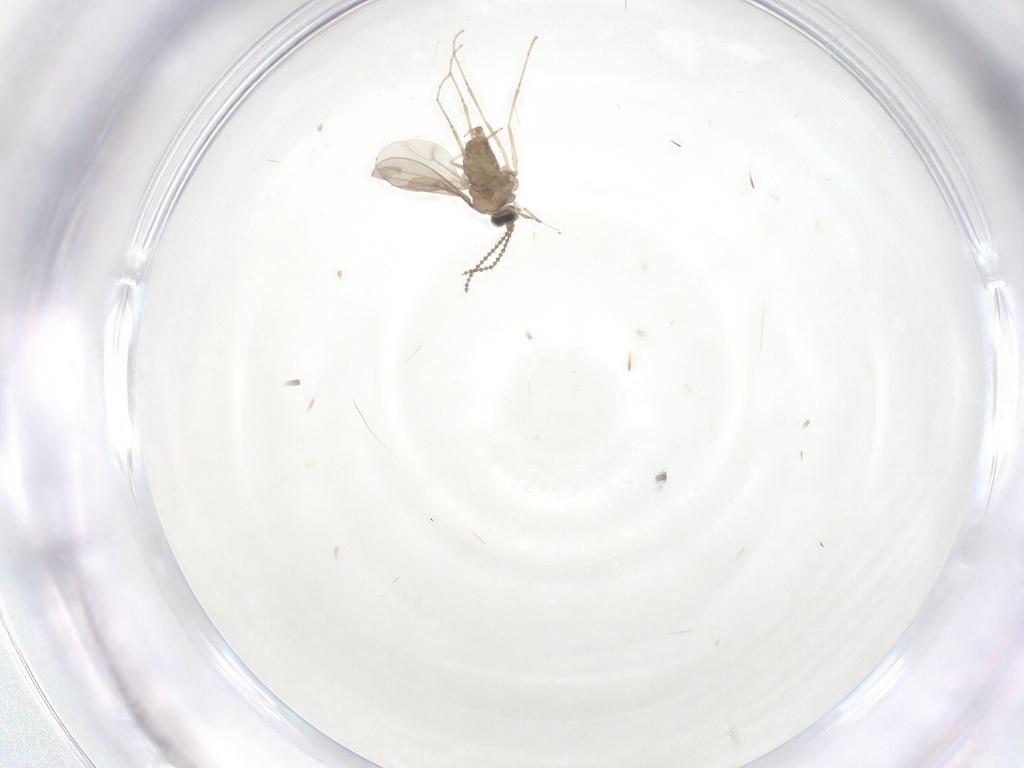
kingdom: Animalia
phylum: Arthropoda
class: Insecta
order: Diptera
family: Cecidomyiidae
